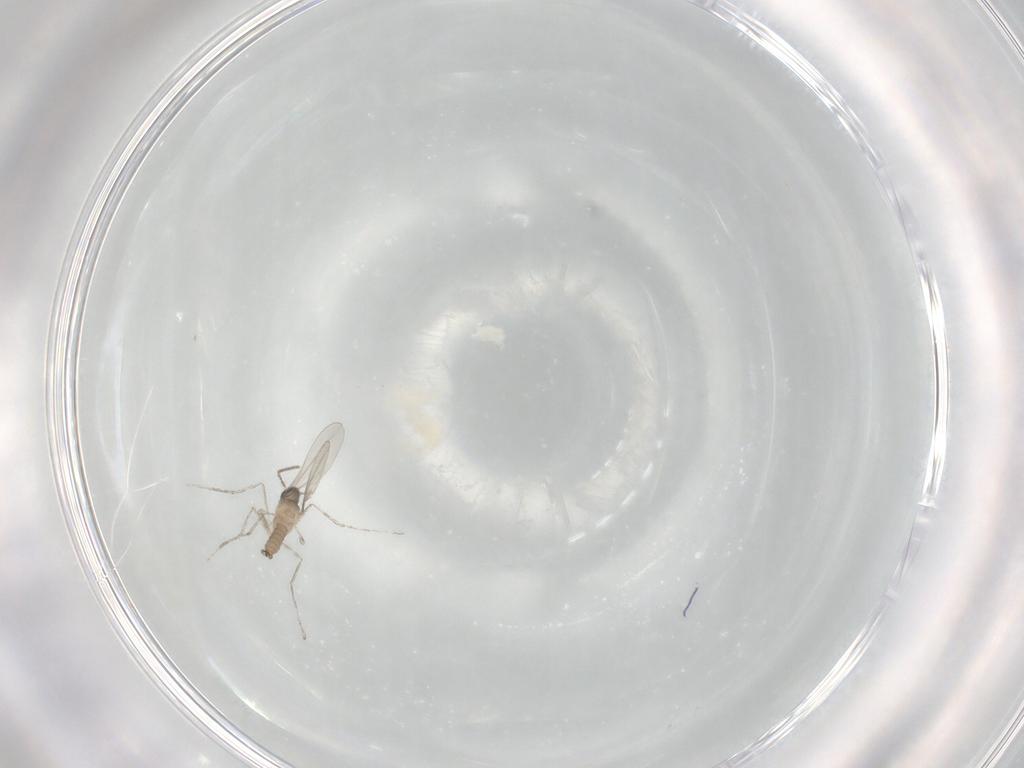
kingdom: Animalia
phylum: Arthropoda
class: Insecta
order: Diptera
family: Cecidomyiidae
